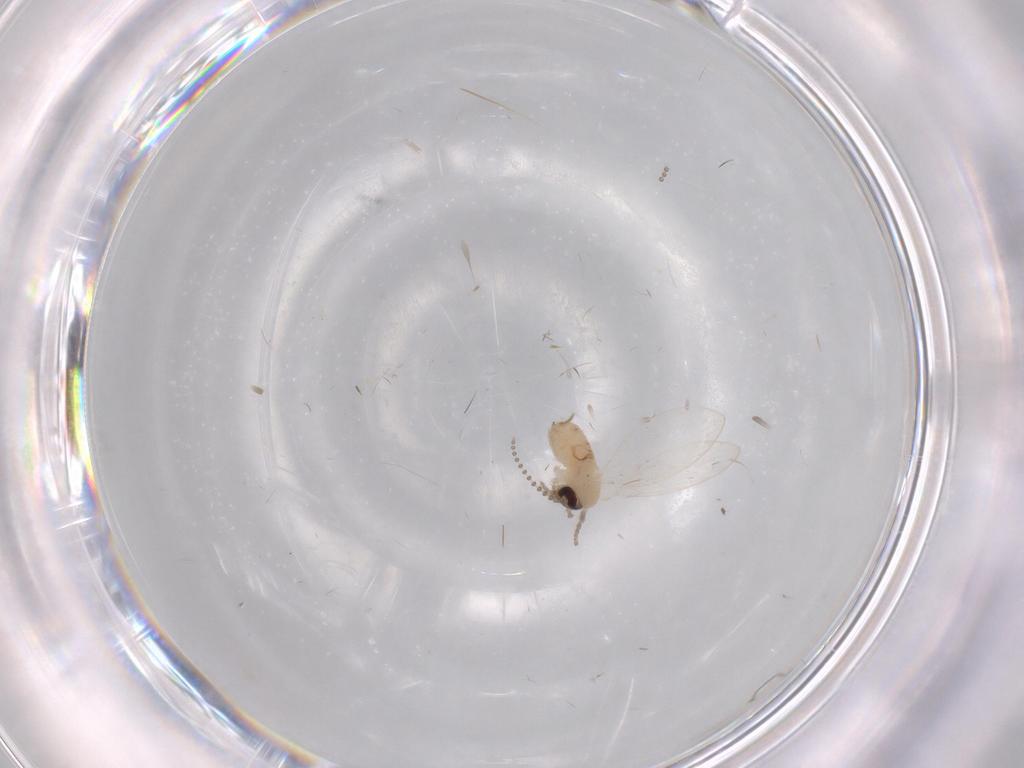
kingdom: Animalia
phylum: Arthropoda
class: Insecta
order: Diptera
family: Psychodidae
